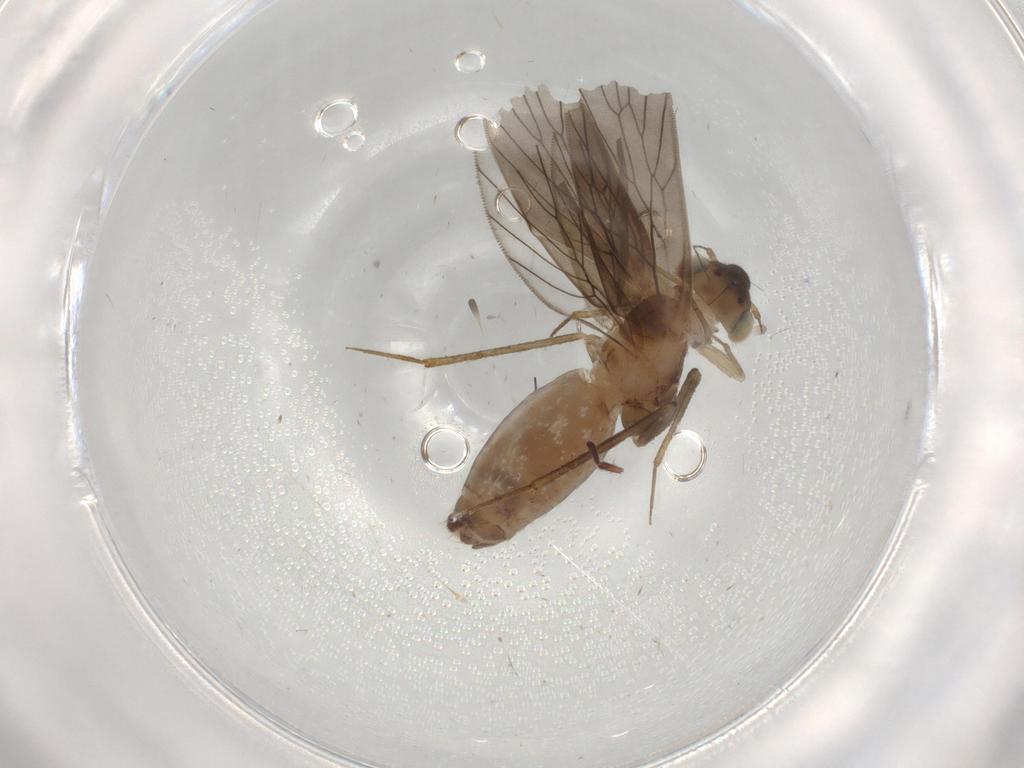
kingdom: Animalia
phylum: Arthropoda
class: Insecta
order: Psocodea
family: Lepidopsocidae
